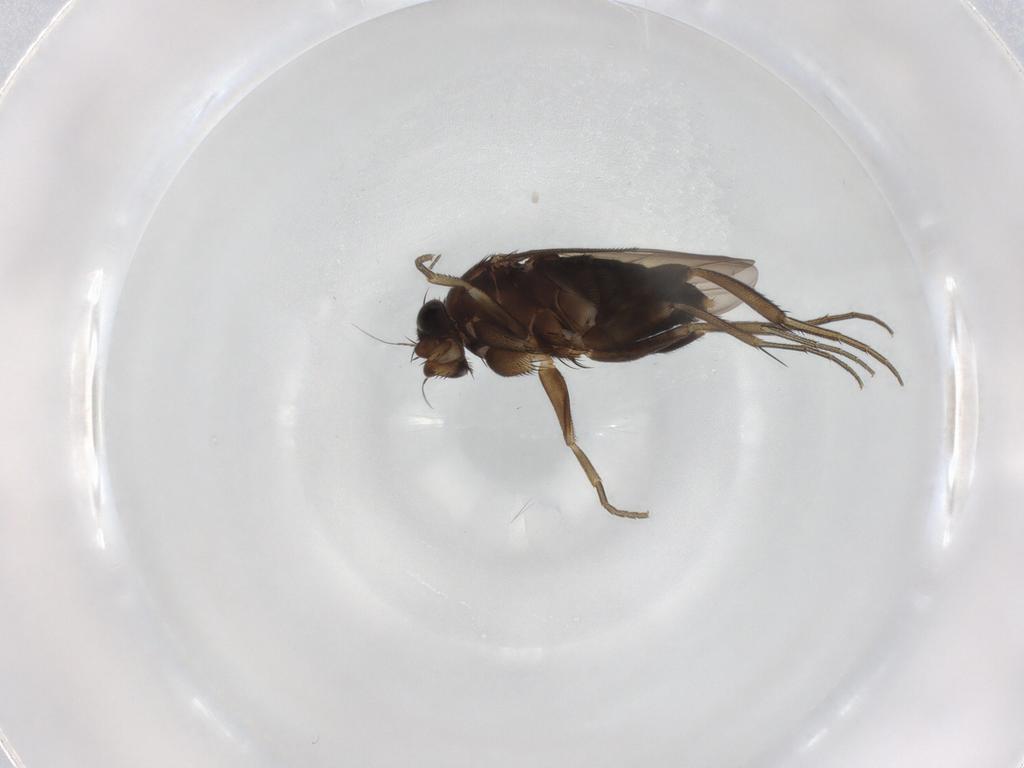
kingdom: Animalia
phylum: Arthropoda
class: Insecta
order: Diptera
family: Phoridae
